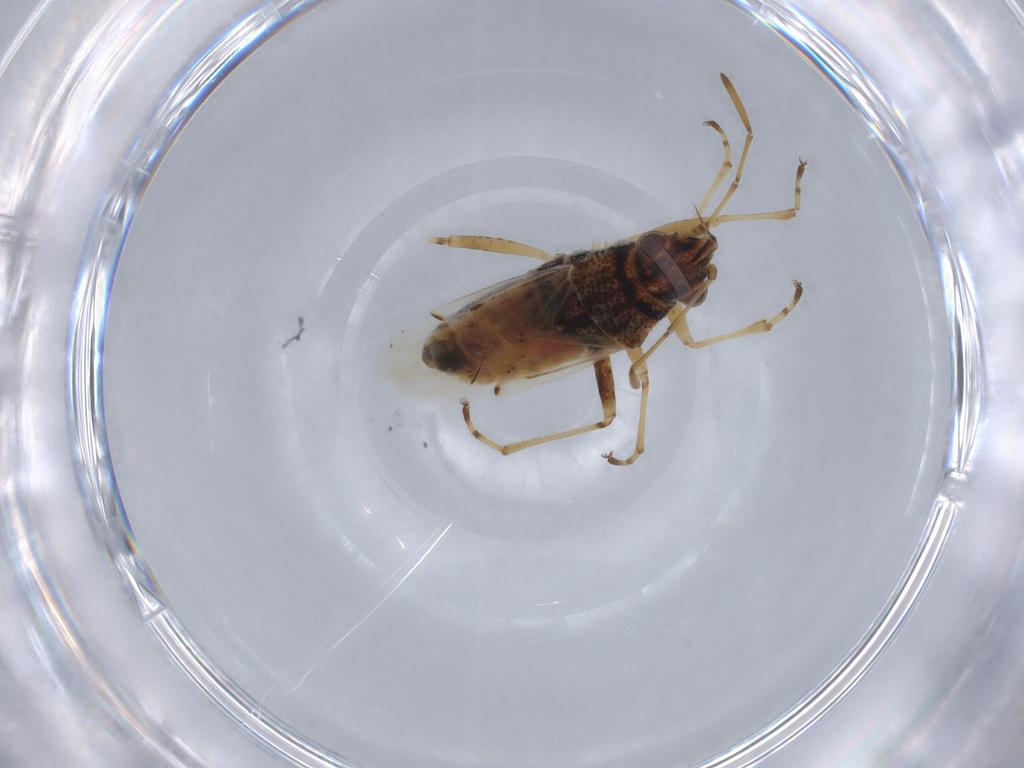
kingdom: Animalia
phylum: Arthropoda
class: Insecta
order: Hemiptera
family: Lygaeidae
